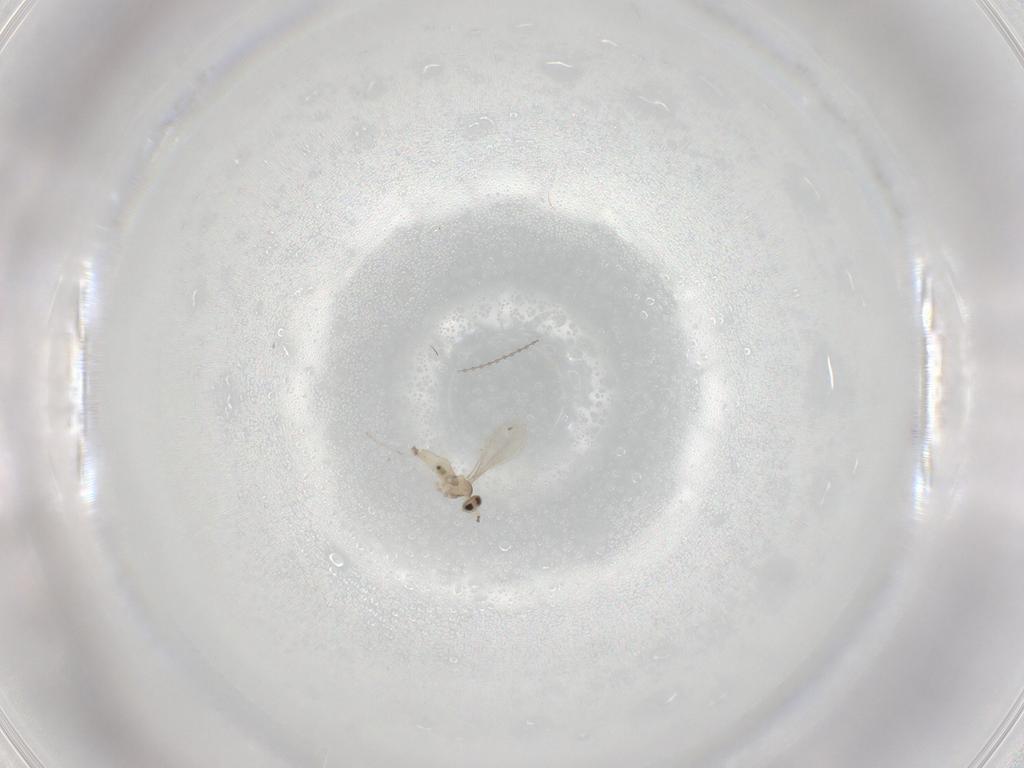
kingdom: Animalia
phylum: Arthropoda
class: Insecta
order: Diptera
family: Cecidomyiidae
